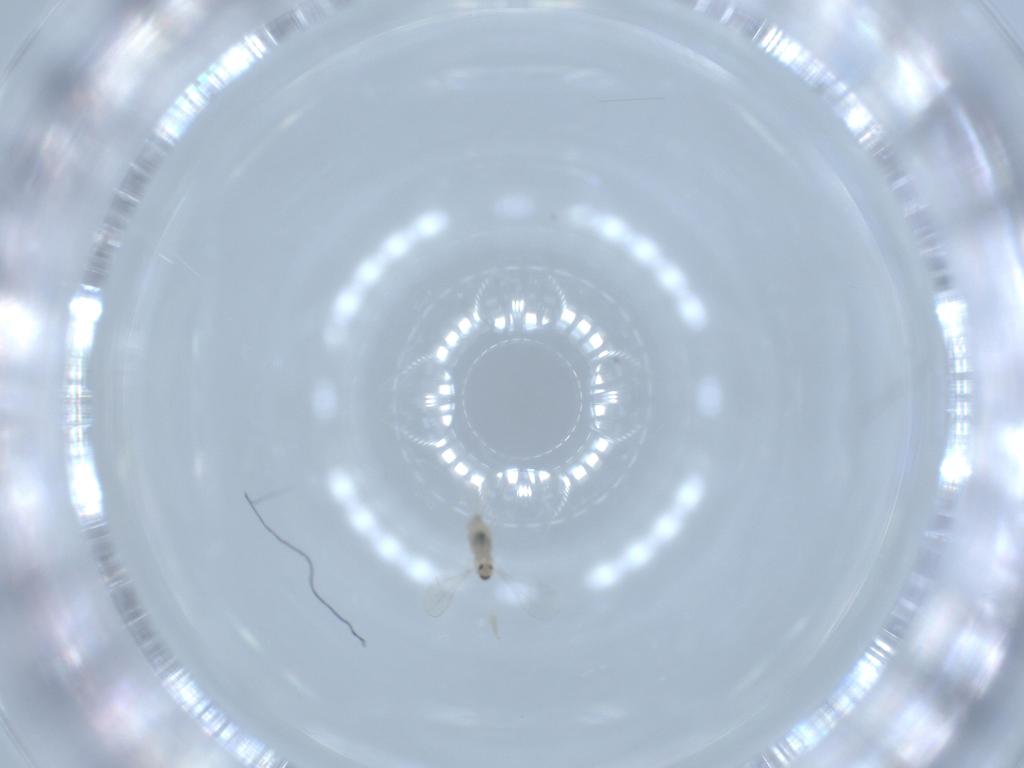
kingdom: Animalia
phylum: Arthropoda
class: Insecta
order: Diptera
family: Cecidomyiidae
